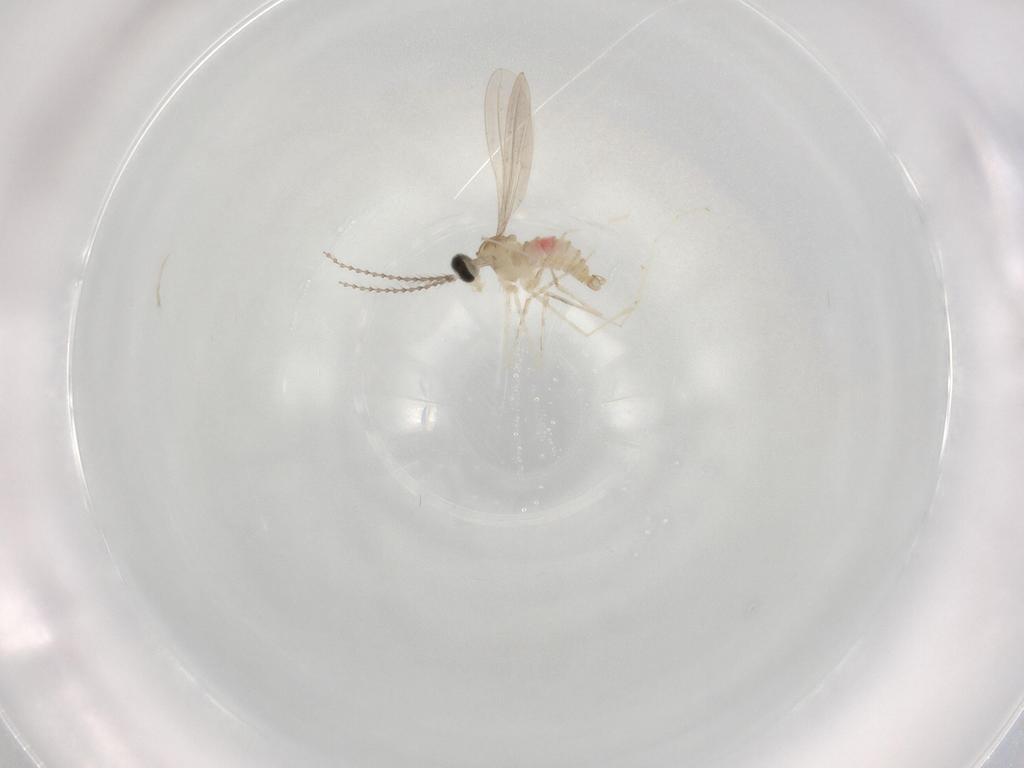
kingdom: Animalia
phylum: Arthropoda
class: Insecta
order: Diptera
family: Cecidomyiidae
